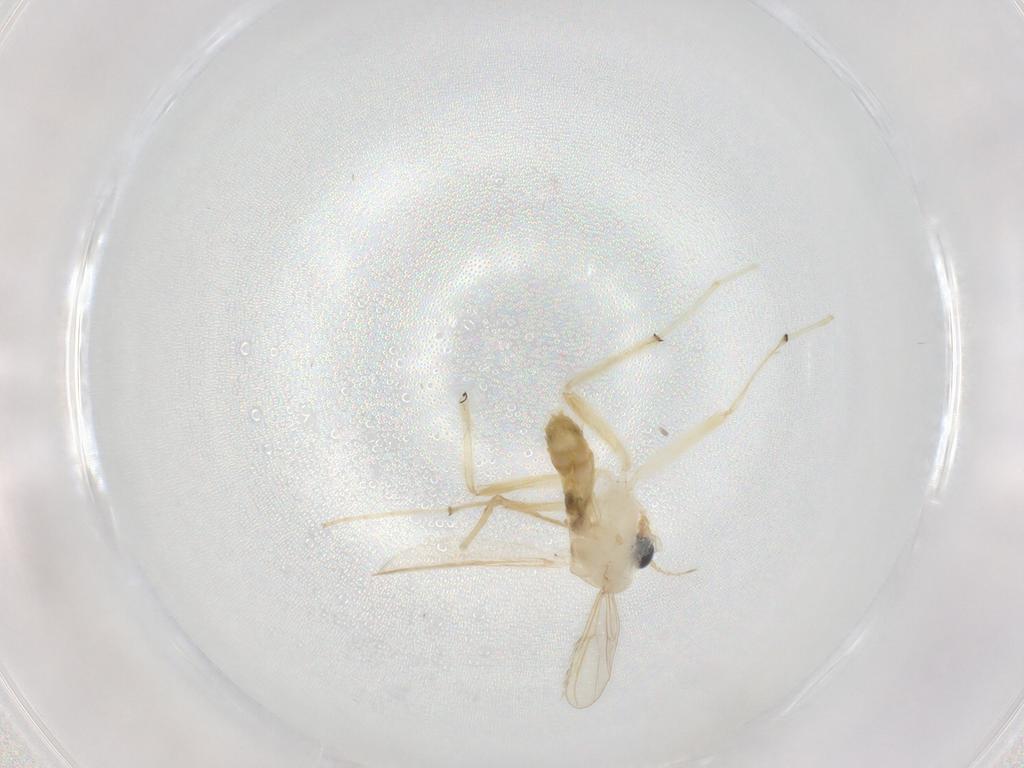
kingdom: Animalia
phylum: Arthropoda
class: Insecta
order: Diptera
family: Chironomidae
